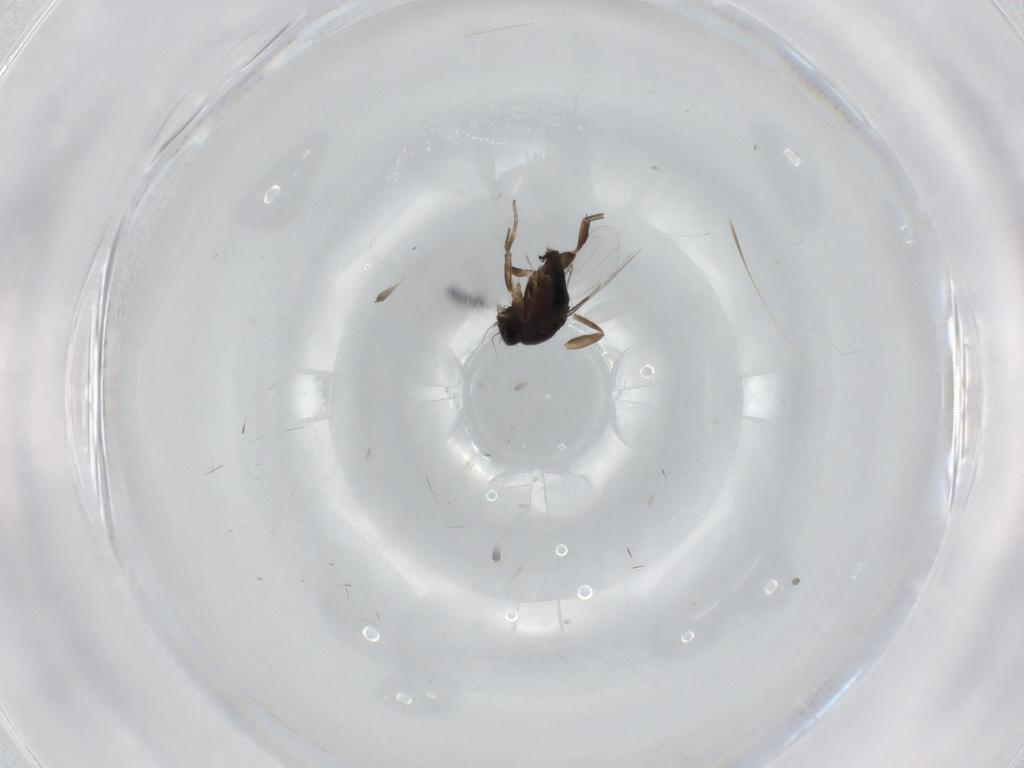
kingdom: Animalia
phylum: Arthropoda
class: Insecta
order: Diptera
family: Phoridae
